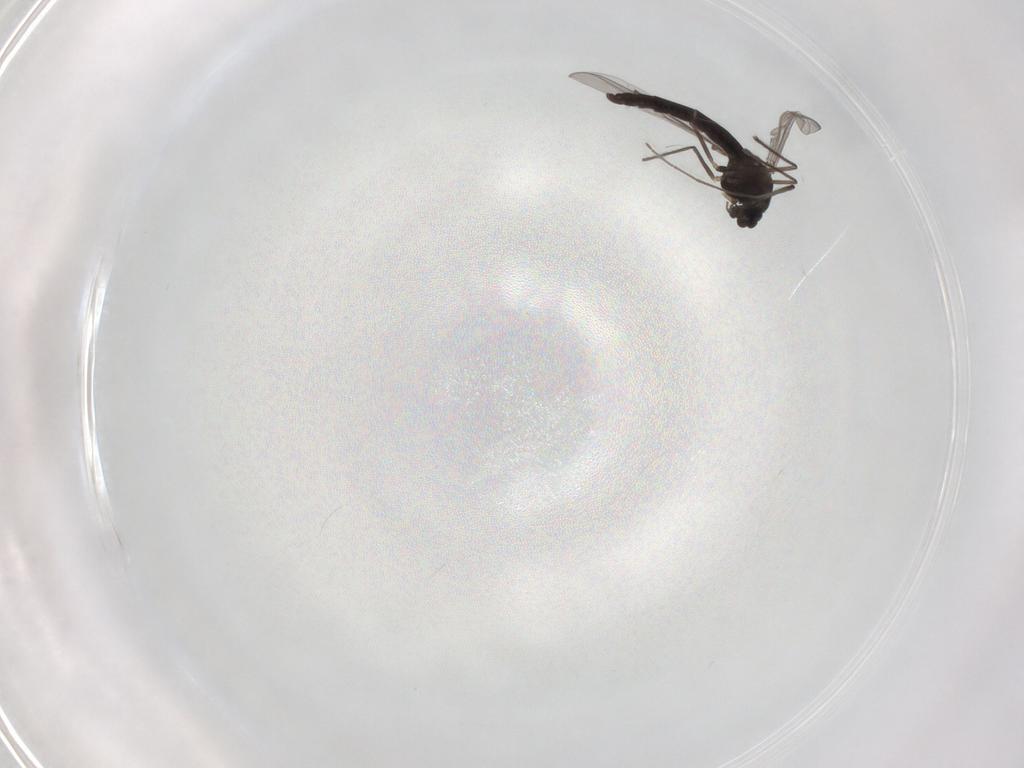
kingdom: Animalia
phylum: Arthropoda
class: Insecta
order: Diptera
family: Chironomidae
